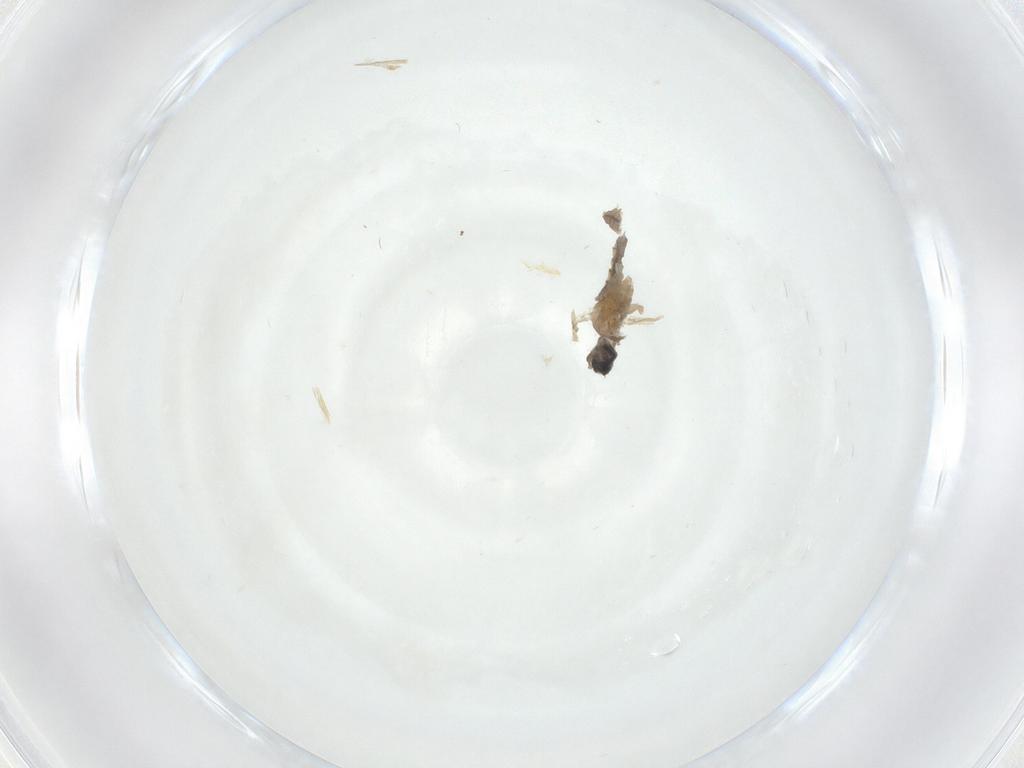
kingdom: Animalia
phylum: Arthropoda
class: Insecta
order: Diptera
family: Cecidomyiidae
